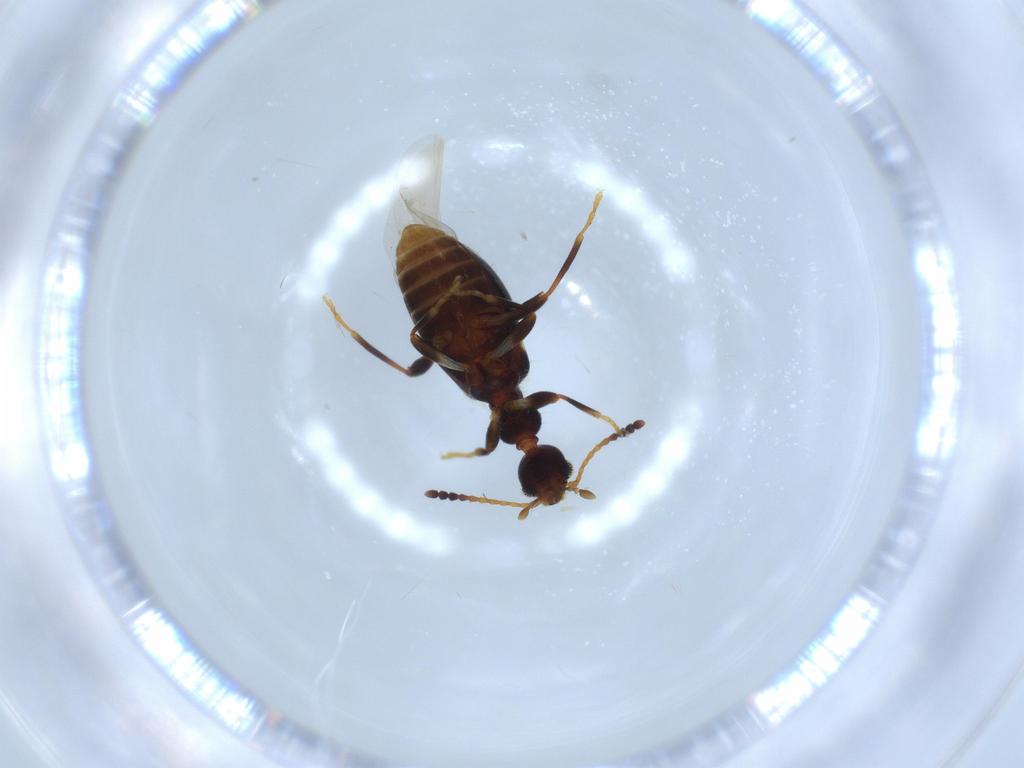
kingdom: Animalia
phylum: Arthropoda
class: Insecta
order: Coleoptera
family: Anthicidae
